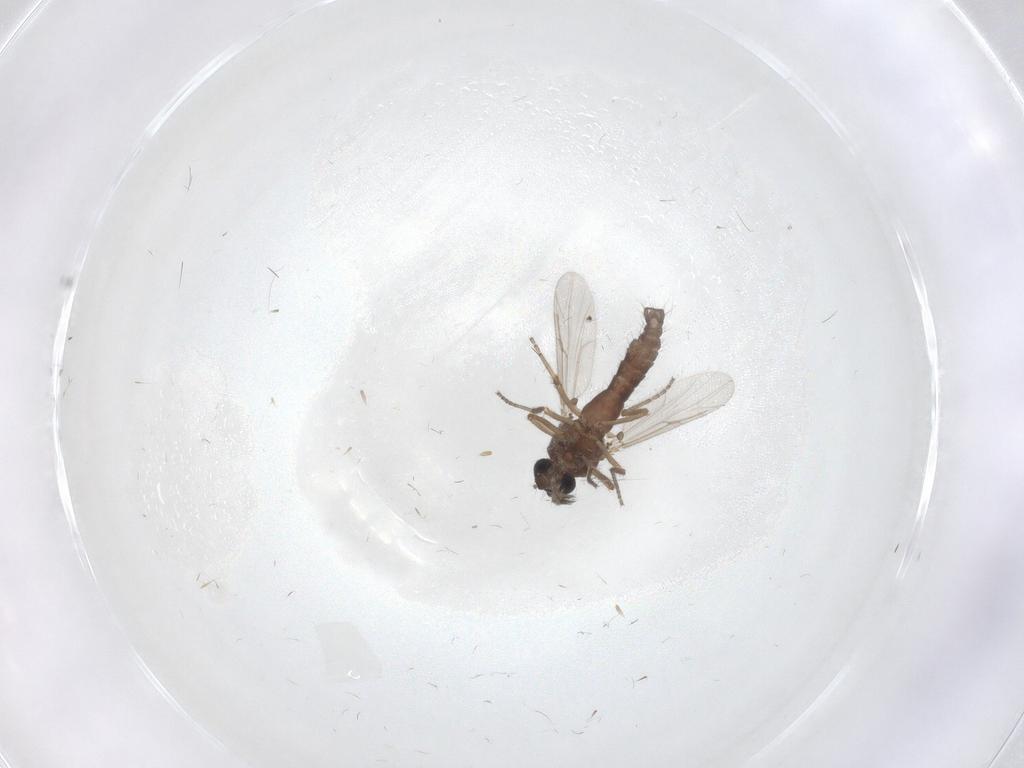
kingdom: Animalia
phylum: Arthropoda
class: Insecta
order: Diptera
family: Ceratopogonidae
